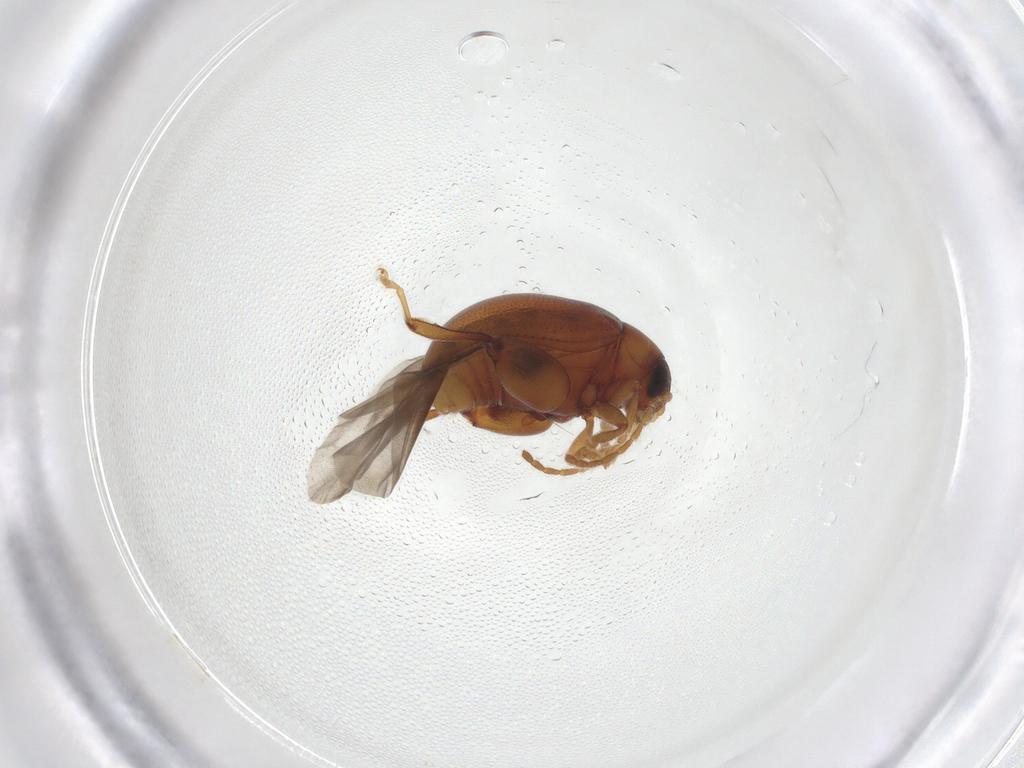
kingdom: Animalia
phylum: Arthropoda
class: Insecta
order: Coleoptera
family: Chrysomelidae
